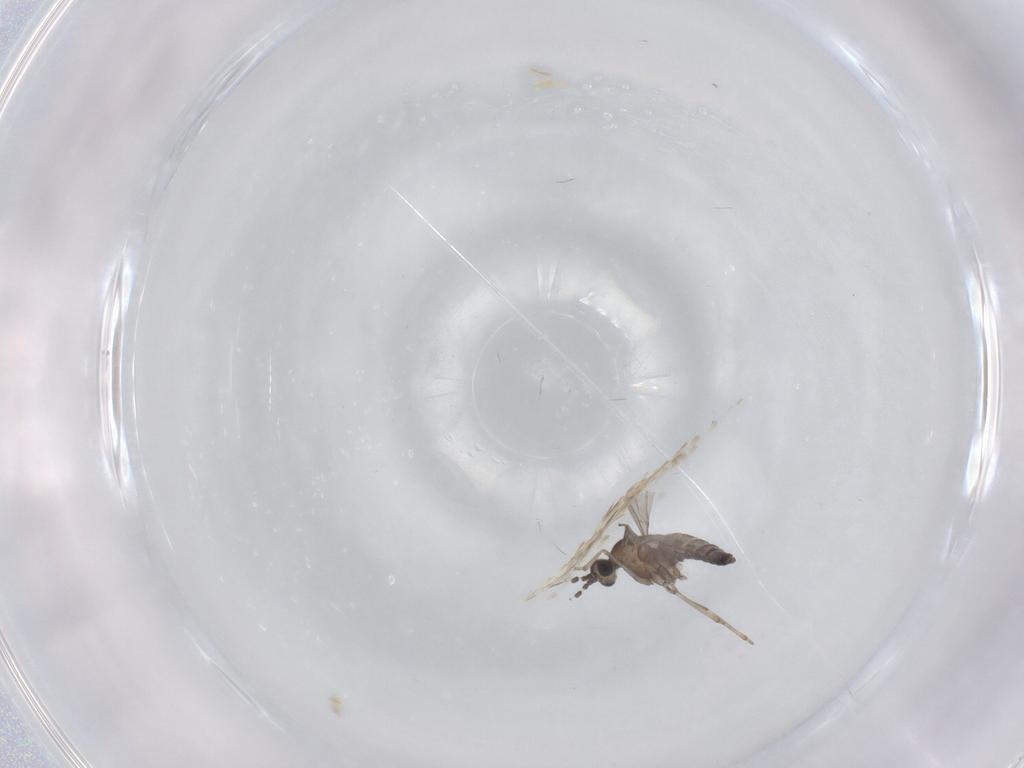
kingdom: Animalia
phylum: Arthropoda
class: Insecta
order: Diptera
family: Cecidomyiidae
